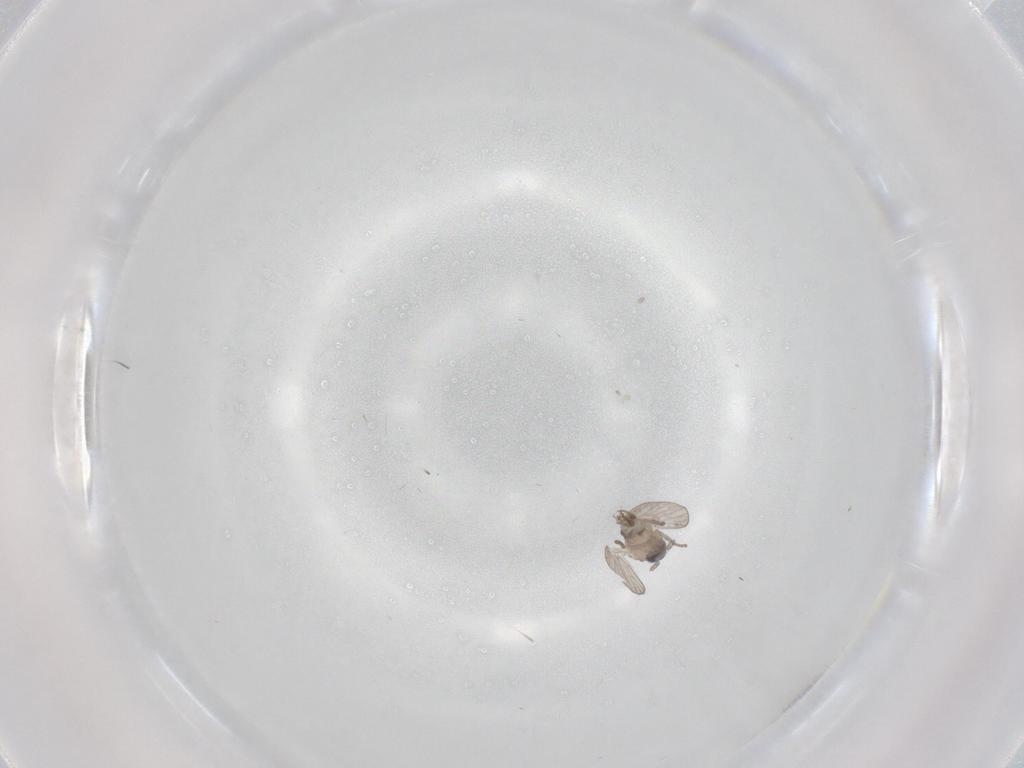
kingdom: Animalia
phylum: Arthropoda
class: Insecta
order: Diptera
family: Psychodidae
